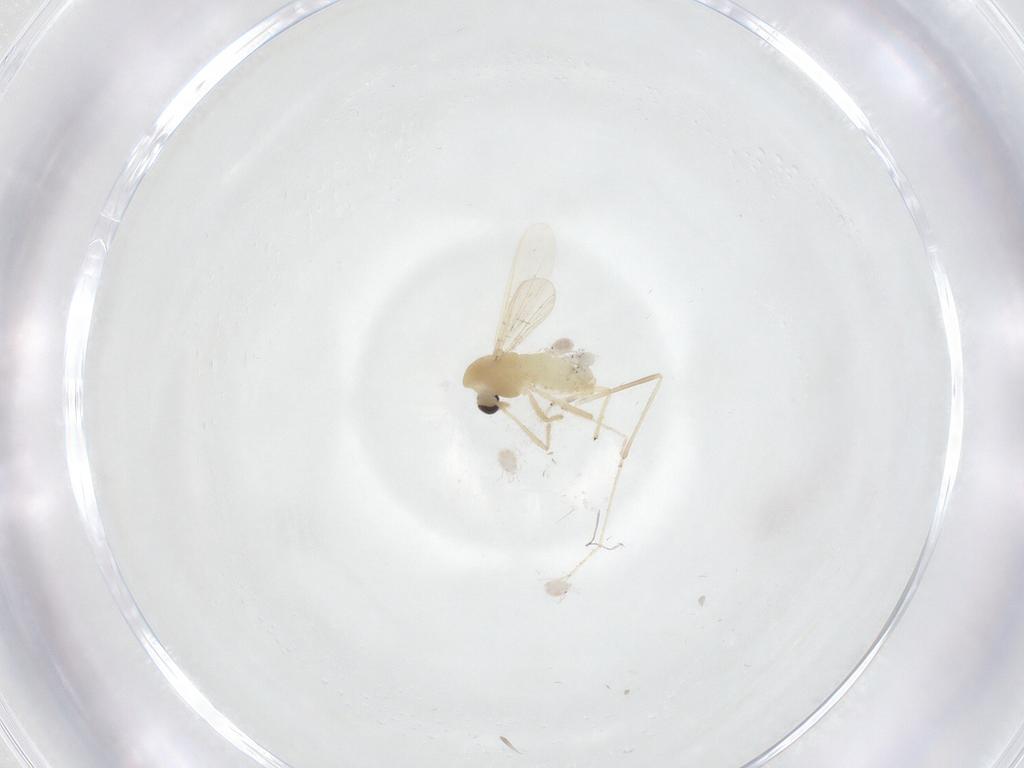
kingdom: Animalia
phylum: Arthropoda
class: Insecta
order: Diptera
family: Chironomidae
